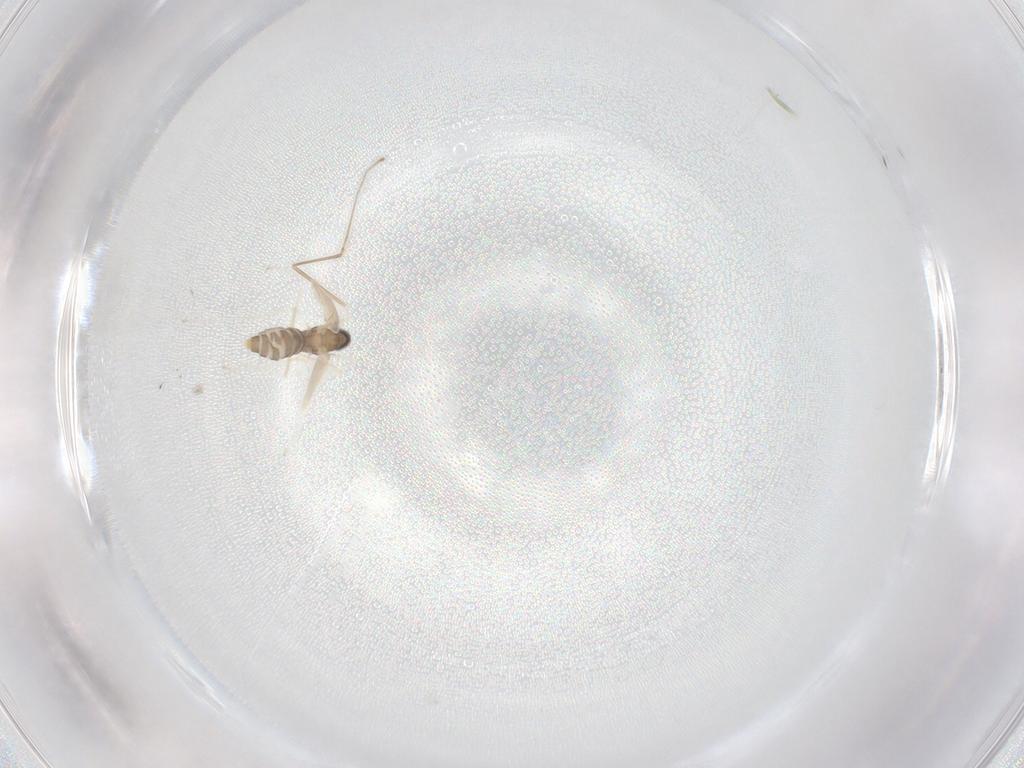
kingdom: Animalia
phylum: Arthropoda
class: Insecta
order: Diptera
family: Cecidomyiidae
